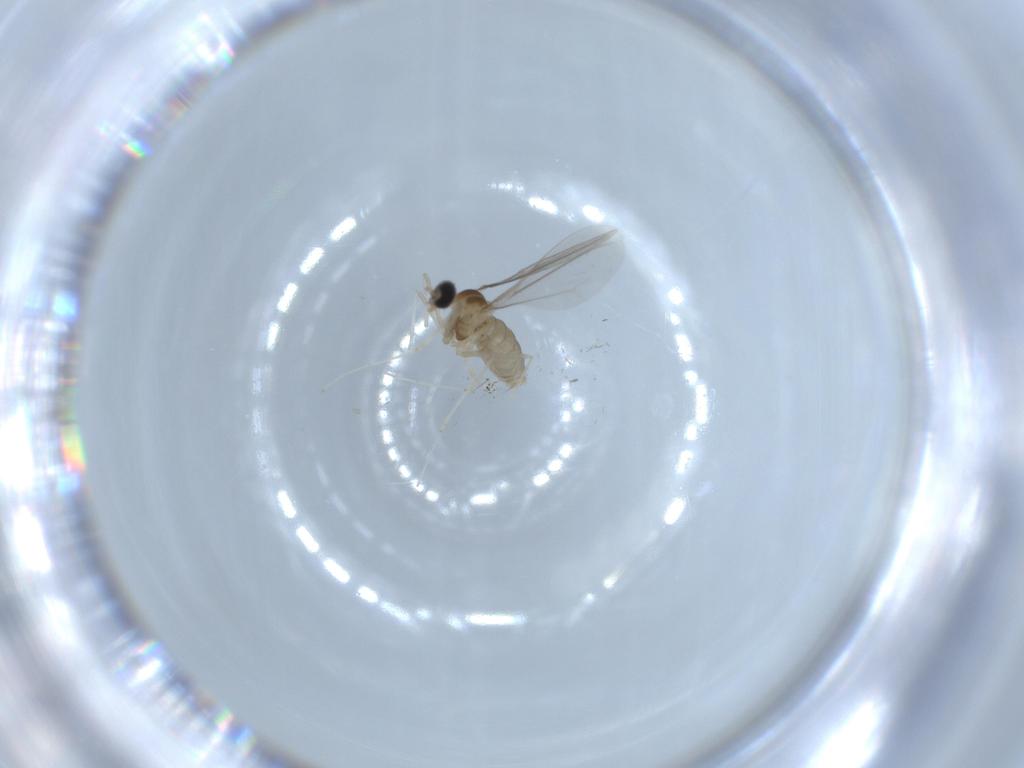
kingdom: Animalia
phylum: Arthropoda
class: Insecta
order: Diptera
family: Cecidomyiidae
